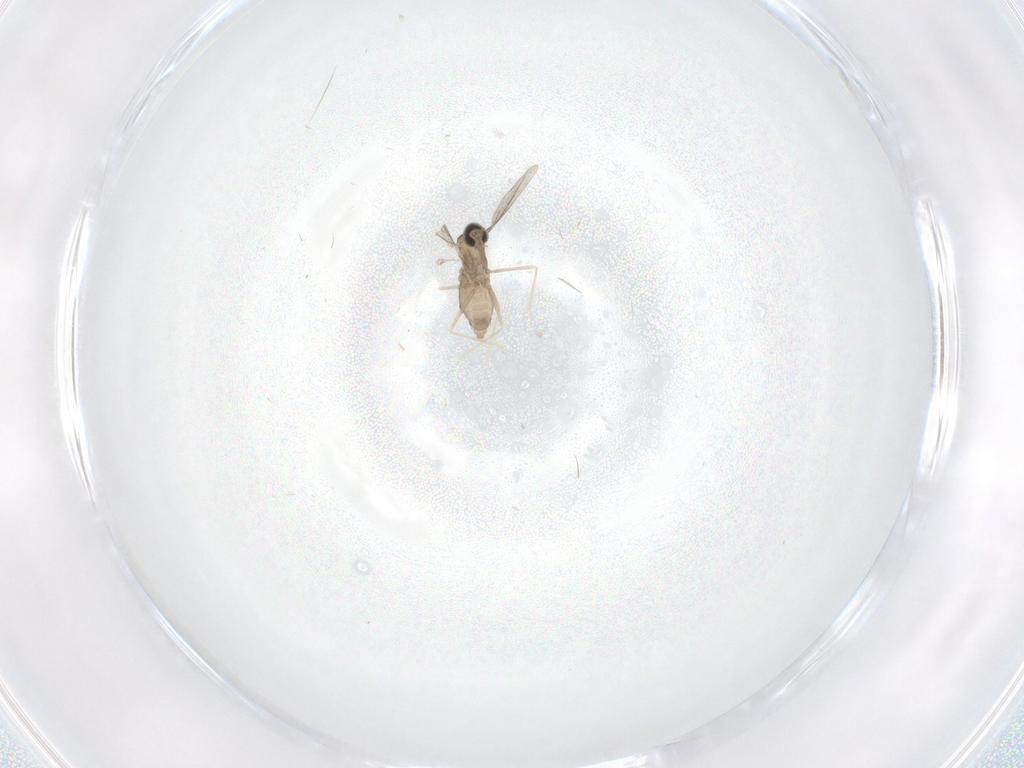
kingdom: Animalia
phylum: Arthropoda
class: Insecta
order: Diptera
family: Cecidomyiidae
